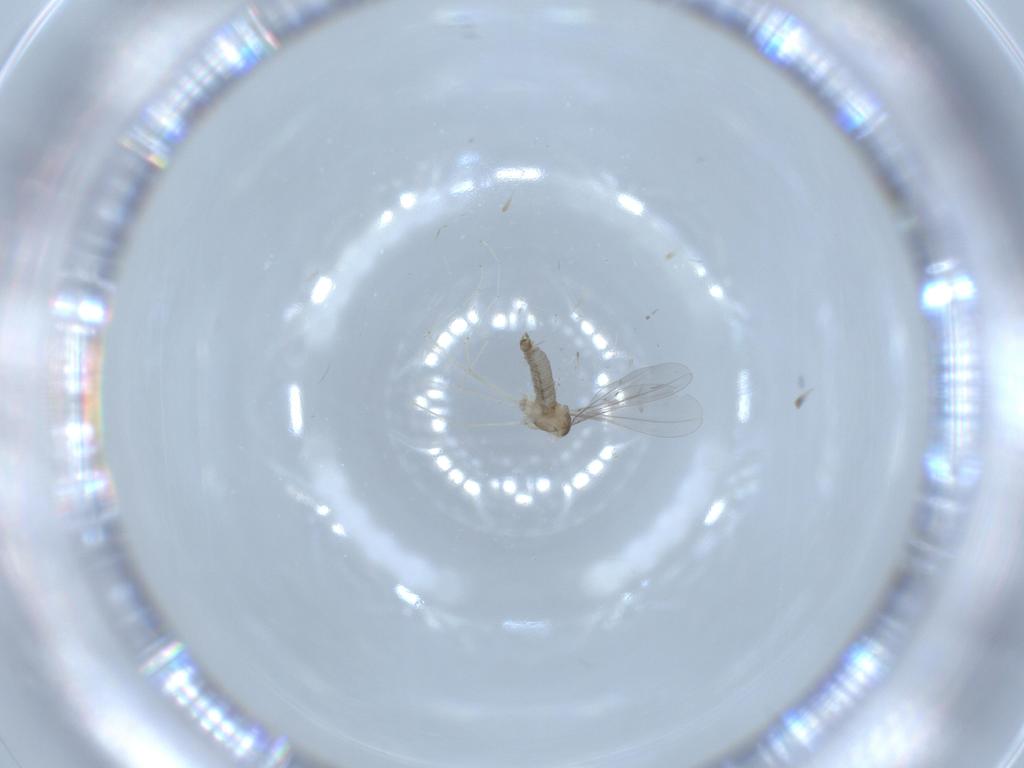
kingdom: Animalia
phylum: Arthropoda
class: Insecta
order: Diptera
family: Cecidomyiidae
